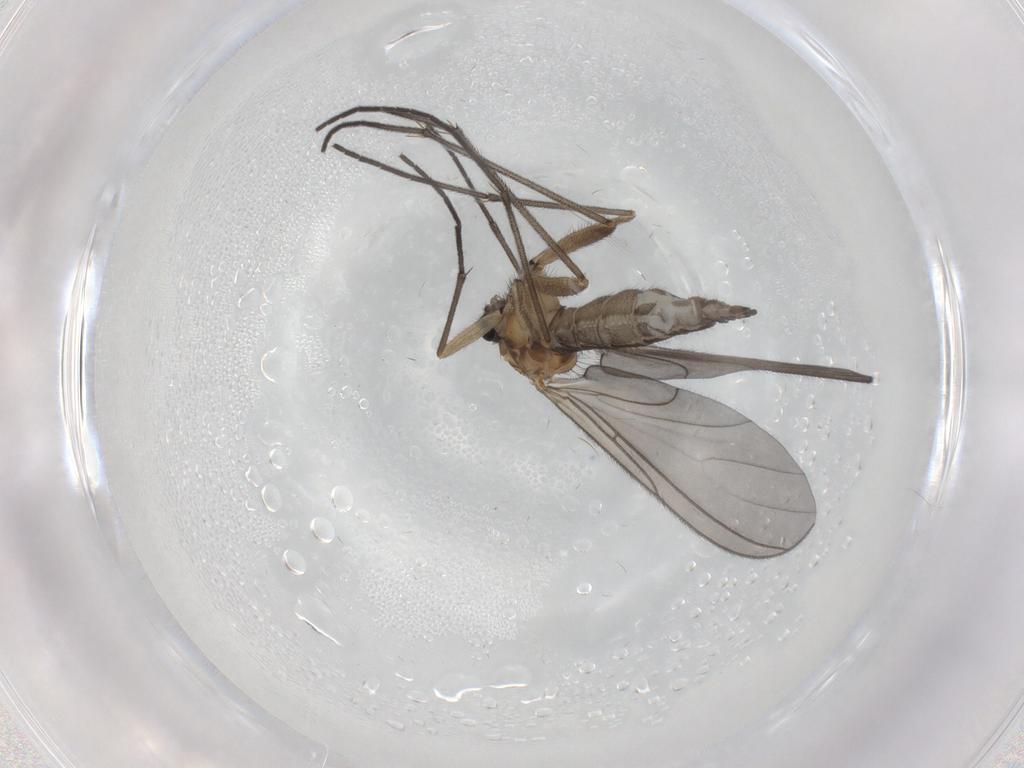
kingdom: Animalia
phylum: Arthropoda
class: Insecta
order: Diptera
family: Sciaridae
